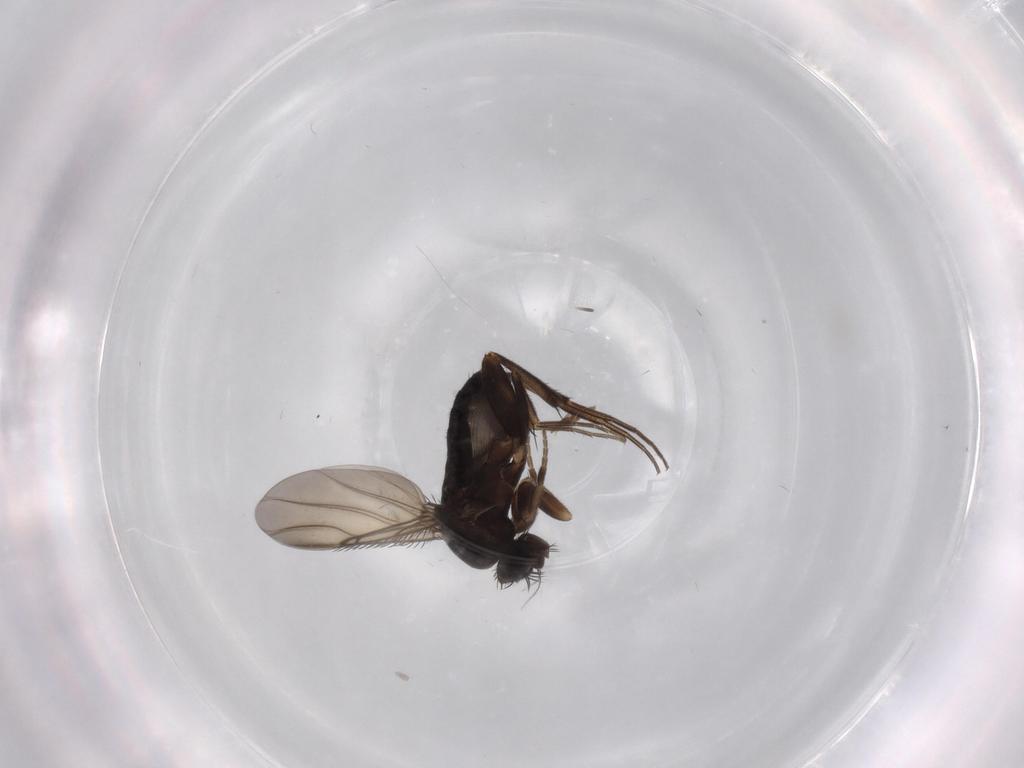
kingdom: Animalia
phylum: Arthropoda
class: Insecta
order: Diptera
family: Phoridae
